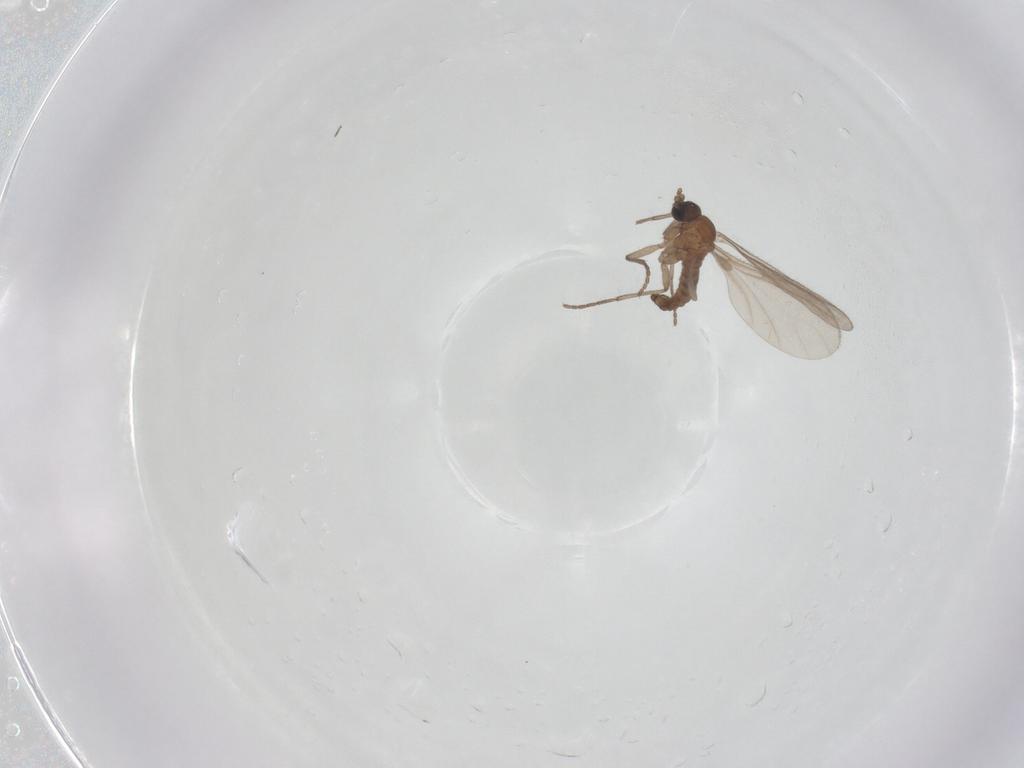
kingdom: Animalia
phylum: Arthropoda
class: Insecta
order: Diptera
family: Sciaridae
